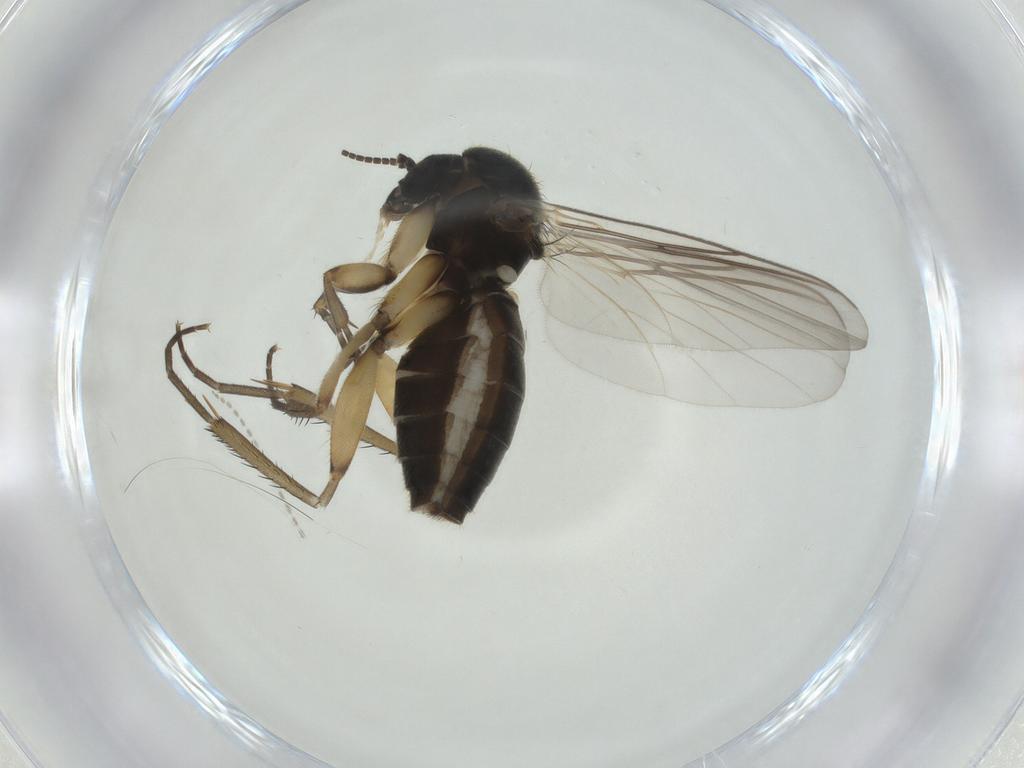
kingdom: Animalia
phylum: Arthropoda
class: Insecta
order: Diptera
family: Mycetophilidae
